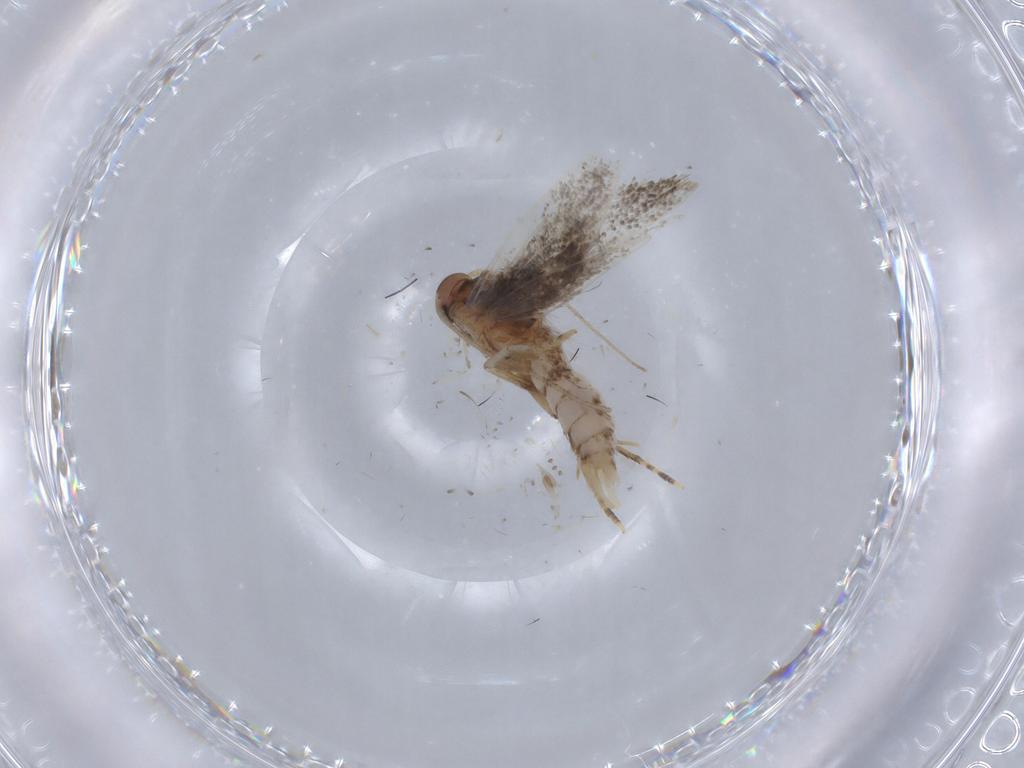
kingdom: Animalia
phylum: Arthropoda
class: Insecta
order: Lepidoptera
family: Elachistidae
